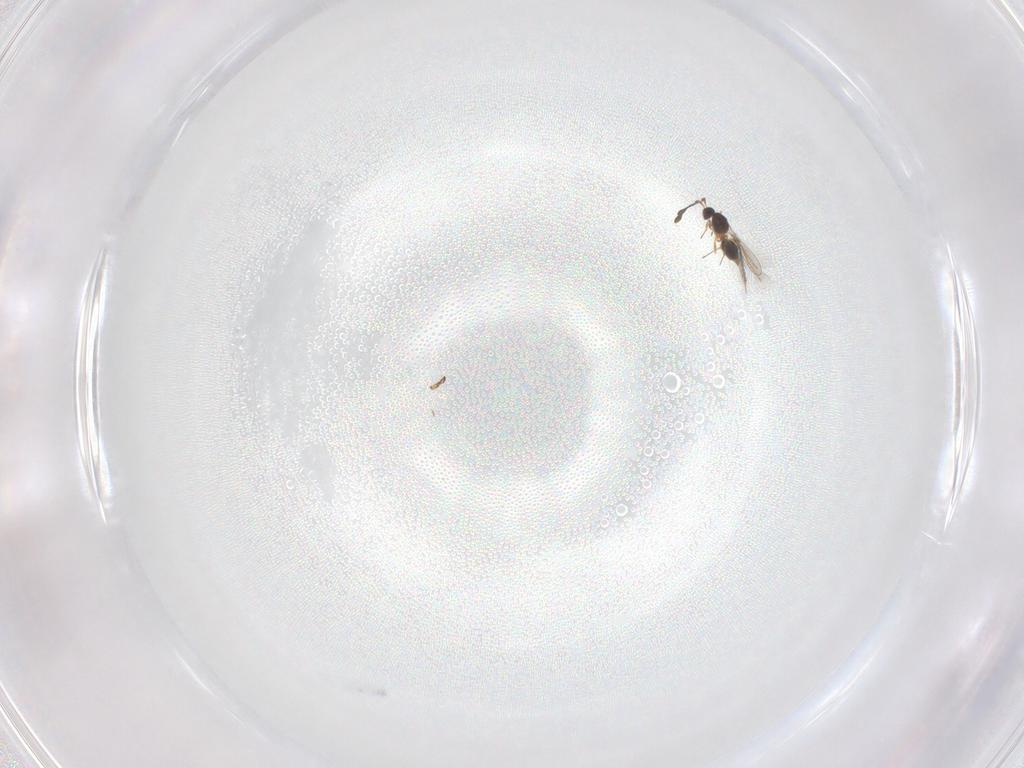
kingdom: Animalia
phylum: Arthropoda
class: Insecta
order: Hymenoptera
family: Mymaridae
